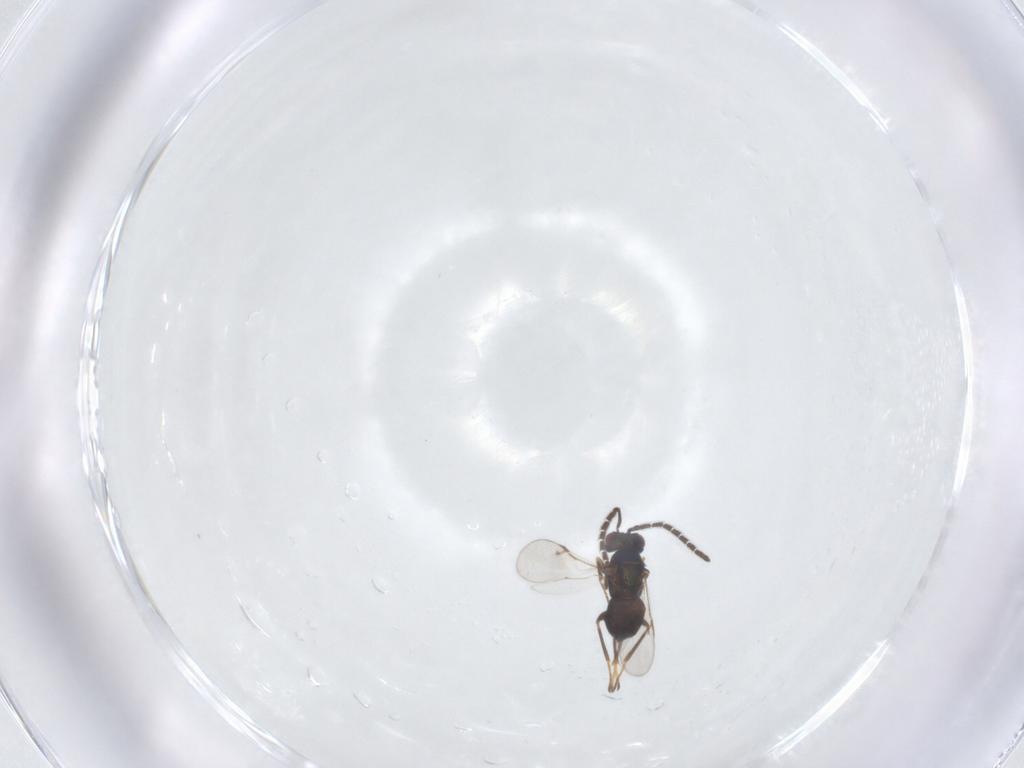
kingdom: Animalia
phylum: Arthropoda
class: Insecta
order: Hymenoptera
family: Encyrtidae
